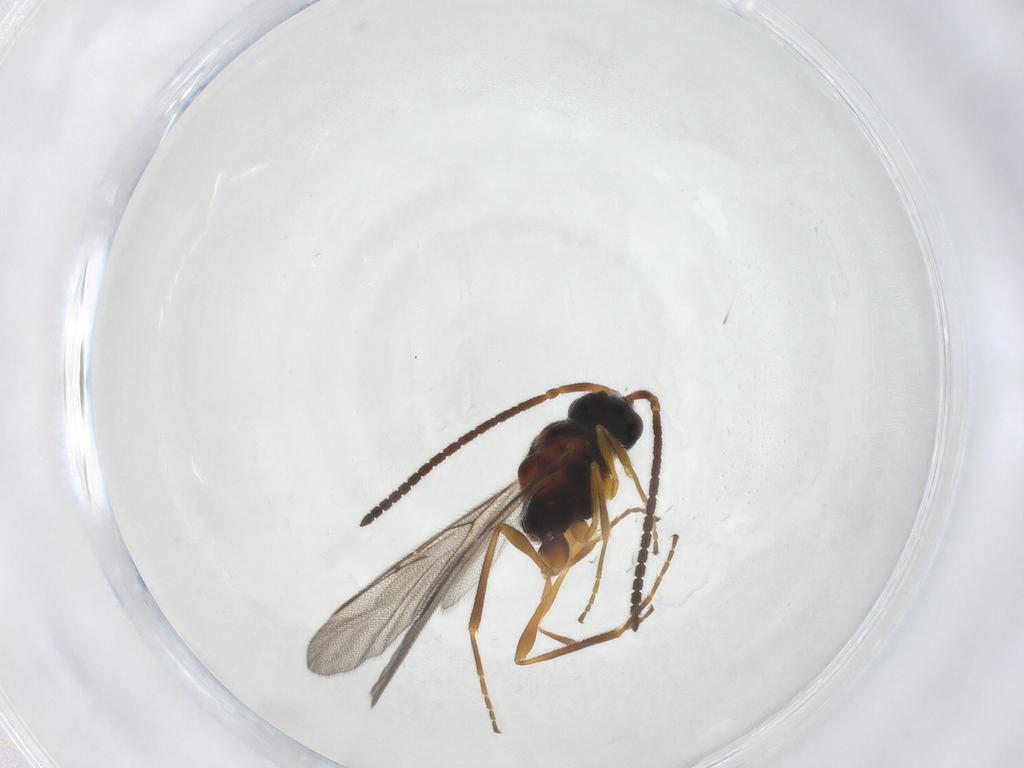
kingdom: Animalia
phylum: Arthropoda
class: Insecta
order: Hymenoptera
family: Diapriidae
